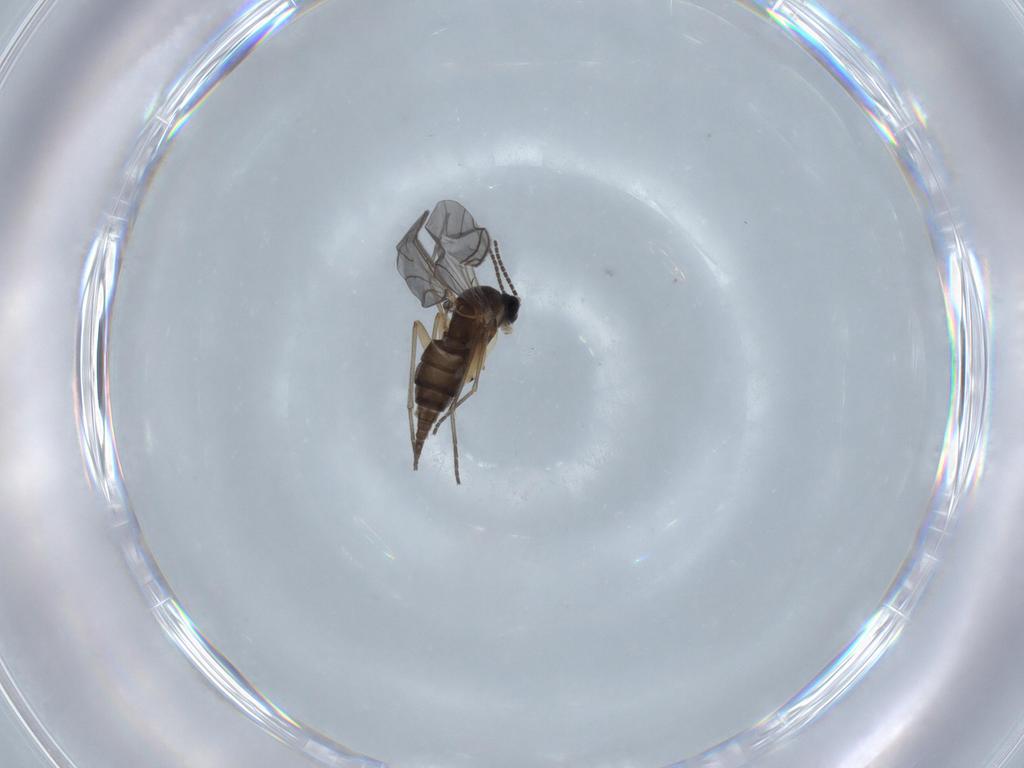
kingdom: Animalia
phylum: Arthropoda
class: Insecta
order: Diptera
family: Sciaridae
